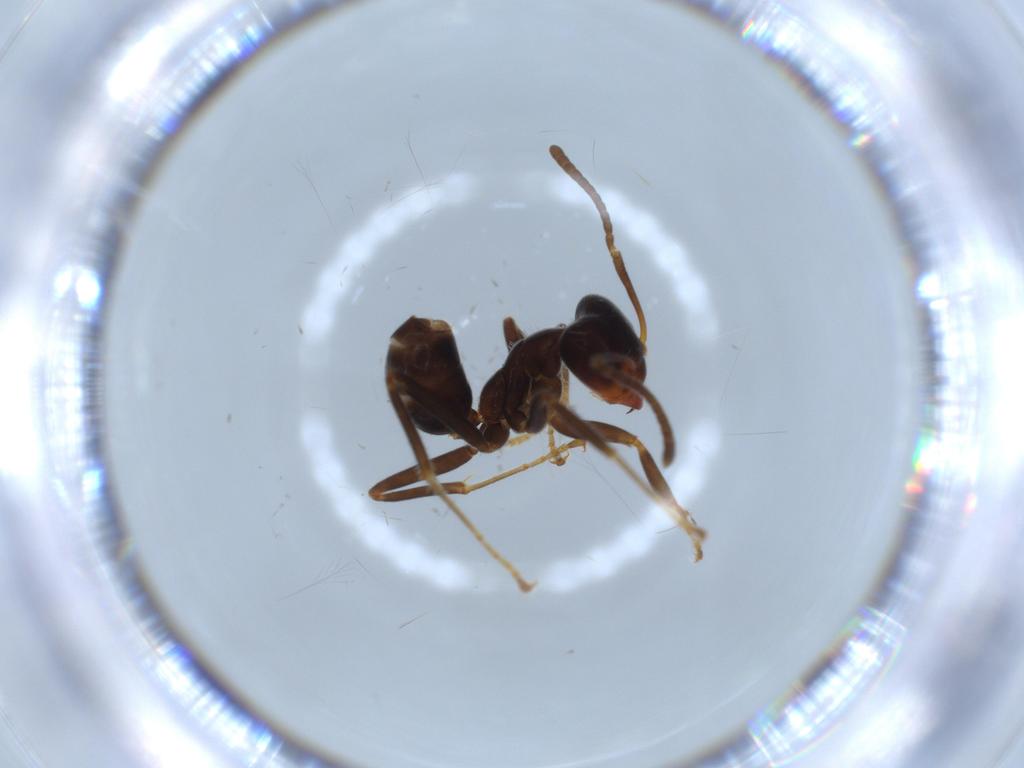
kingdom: Animalia
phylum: Arthropoda
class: Insecta
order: Hymenoptera
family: Formicidae
